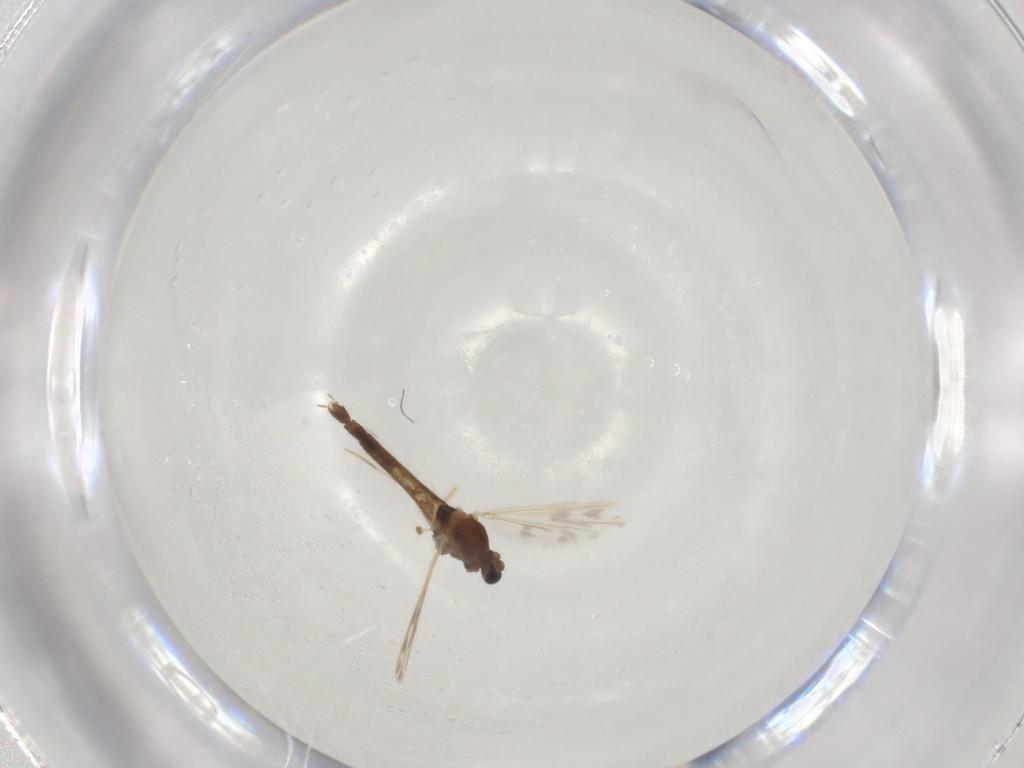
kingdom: Animalia
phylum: Arthropoda
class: Insecta
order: Diptera
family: Chironomidae
